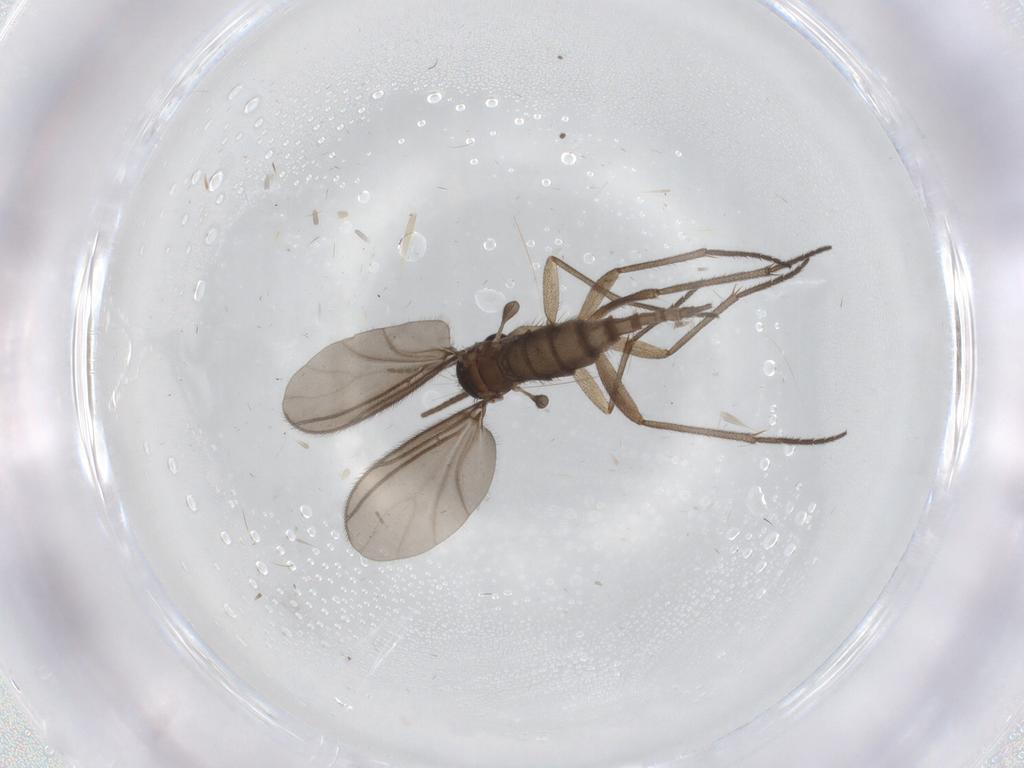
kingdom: Animalia
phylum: Arthropoda
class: Insecta
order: Diptera
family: Sciaridae
